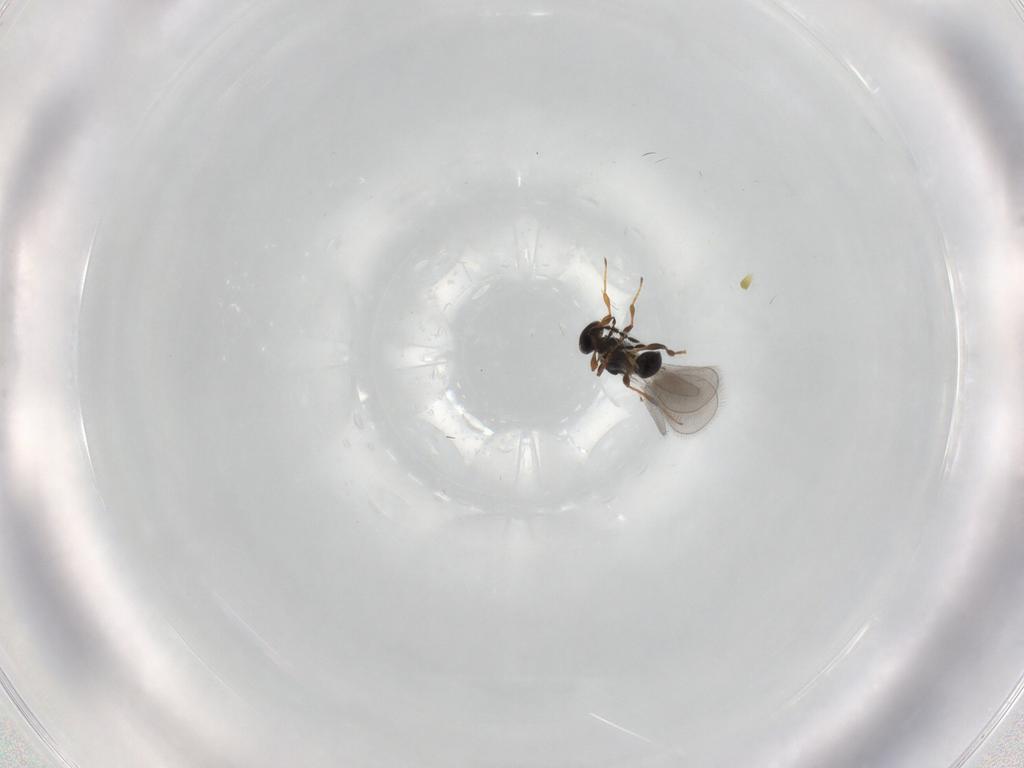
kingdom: Animalia
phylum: Arthropoda
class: Insecta
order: Hymenoptera
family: Platygastridae
